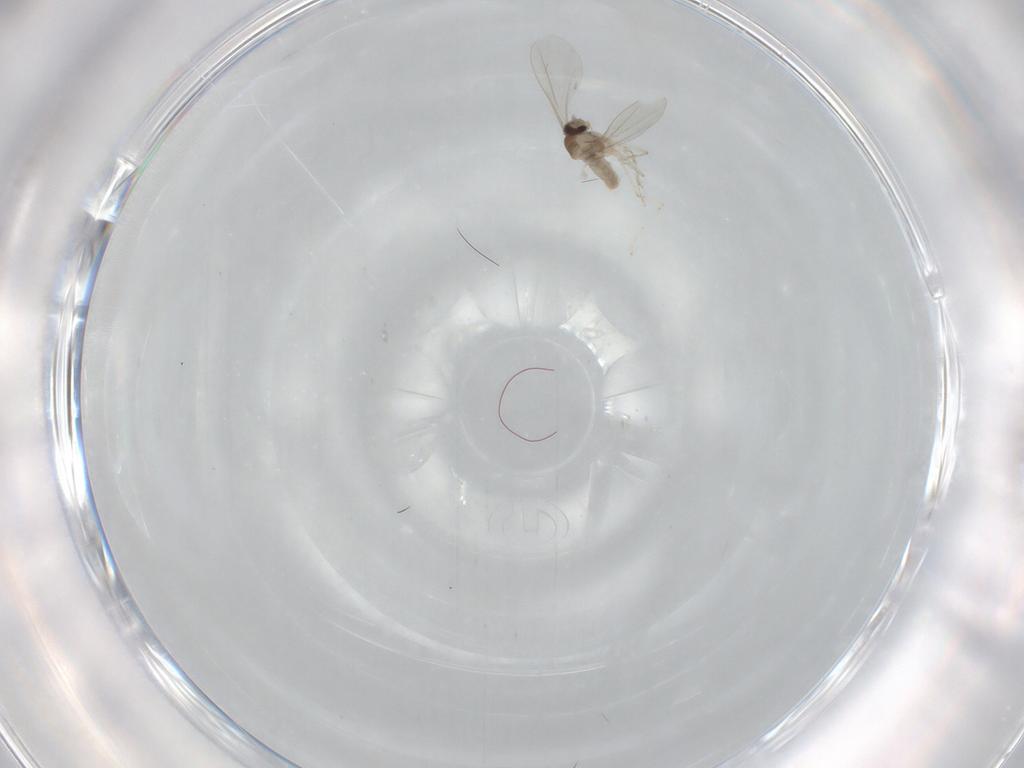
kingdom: Animalia
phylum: Arthropoda
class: Insecta
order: Diptera
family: Cecidomyiidae
